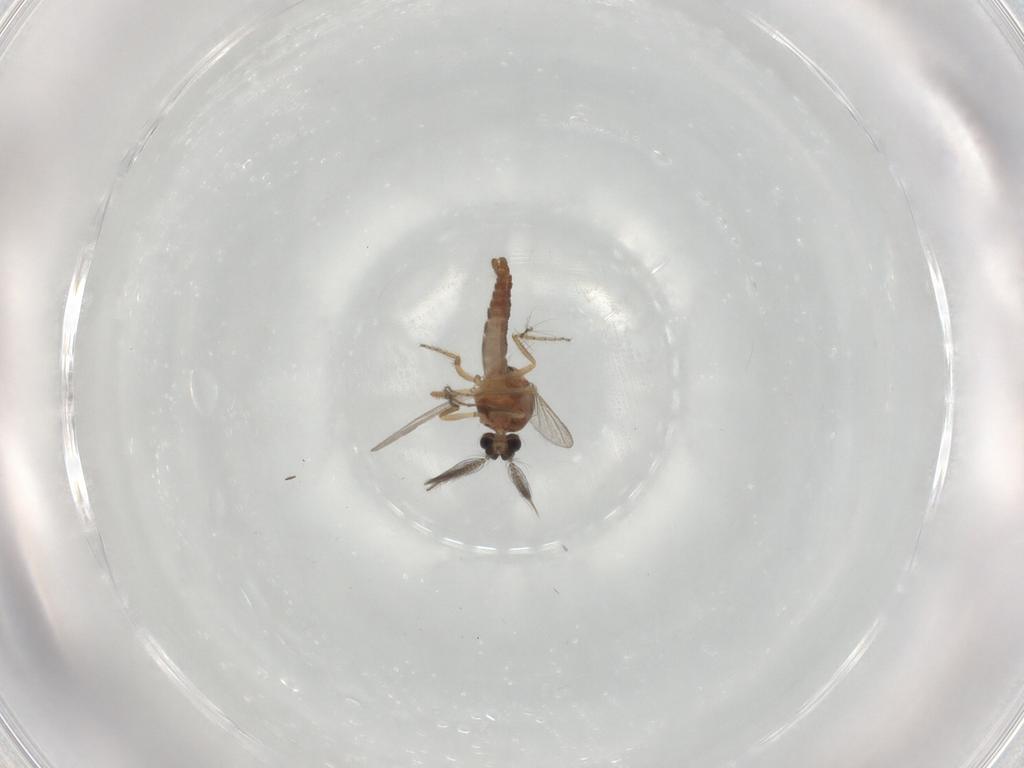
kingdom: Animalia
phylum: Arthropoda
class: Insecta
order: Diptera
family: Ceratopogonidae
